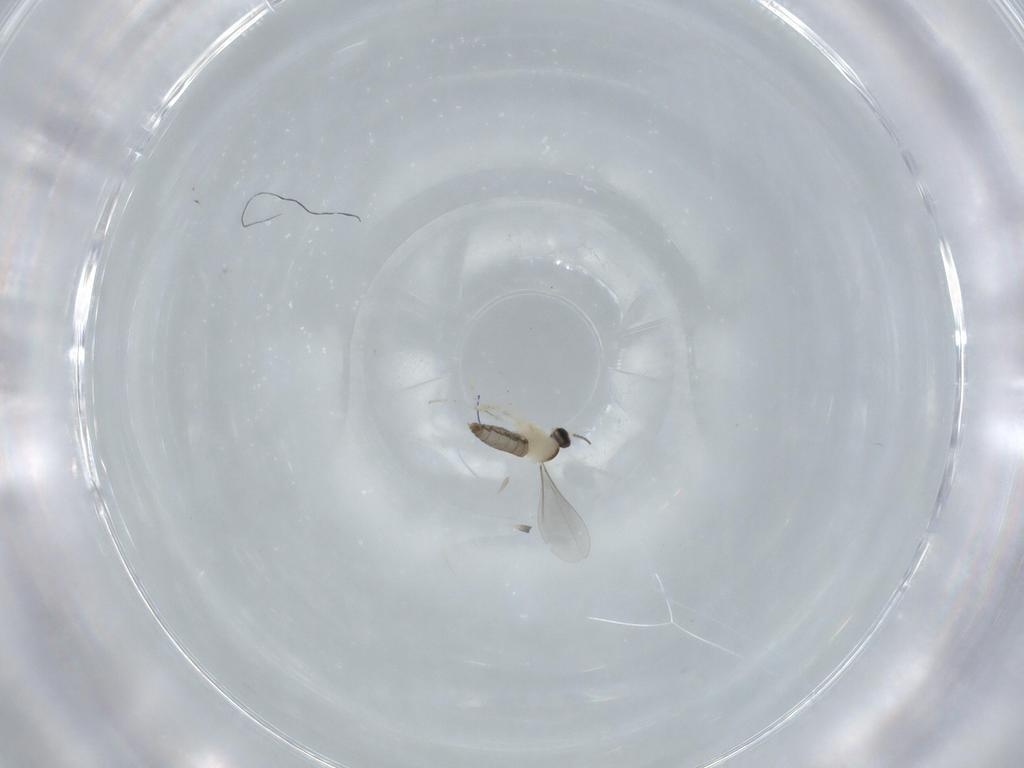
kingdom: Animalia
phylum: Arthropoda
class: Insecta
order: Diptera
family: Cecidomyiidae
